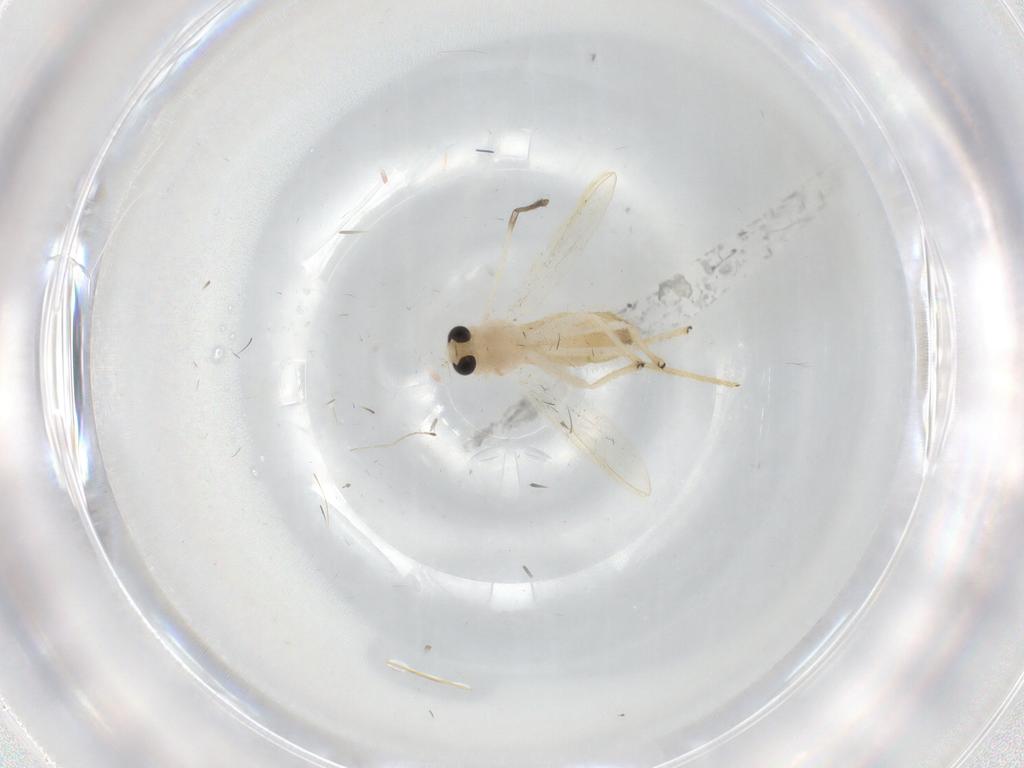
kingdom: Animalia
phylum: Arthropoda
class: Insecta
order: Diptera
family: Chironomidae
